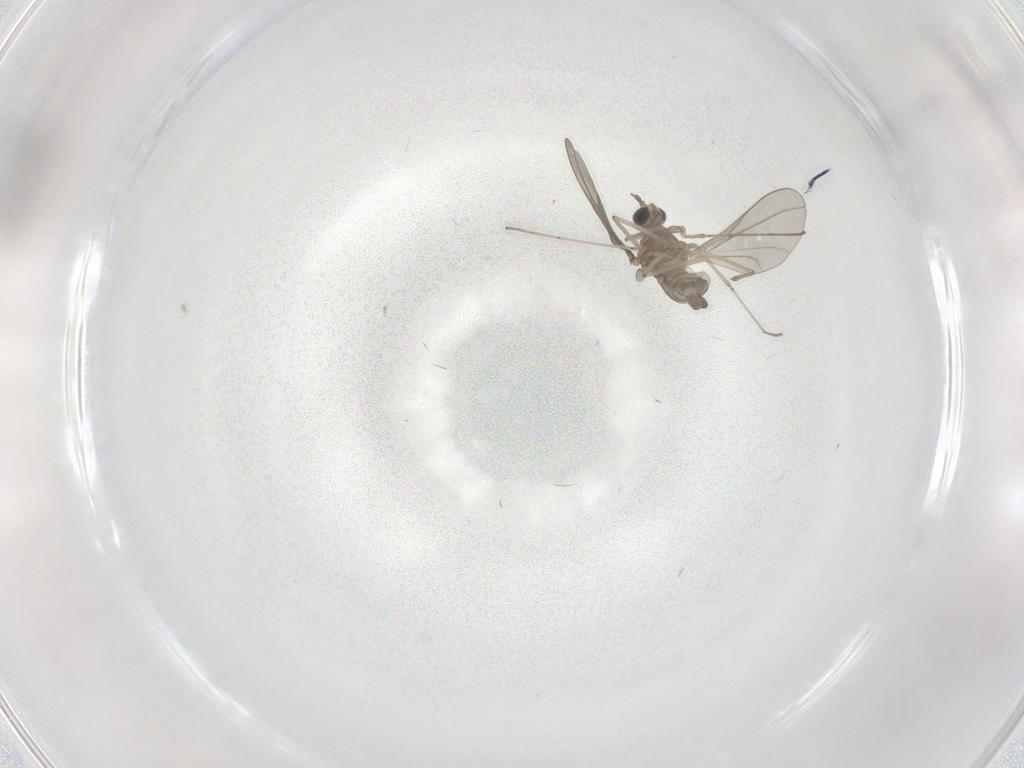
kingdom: Animalia
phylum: Arthropoda
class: Insecta
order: Diptera
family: Cecidomyiidae
